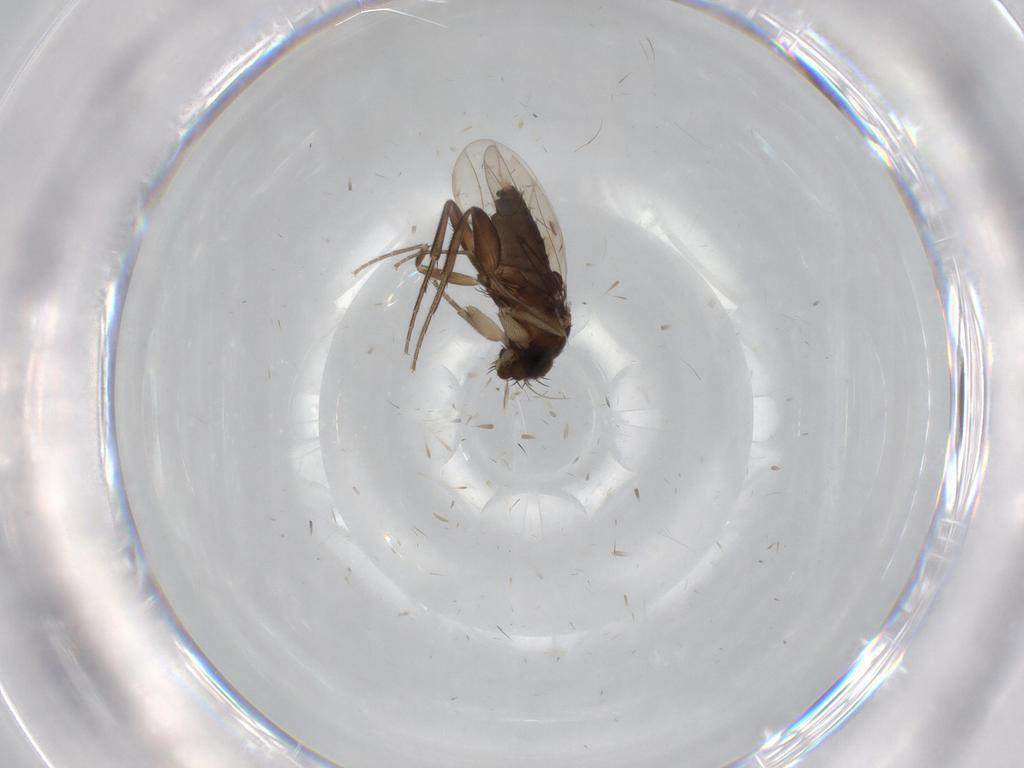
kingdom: Animalia
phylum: Arthropoda
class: Insecta
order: Diptera
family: Phoridae
